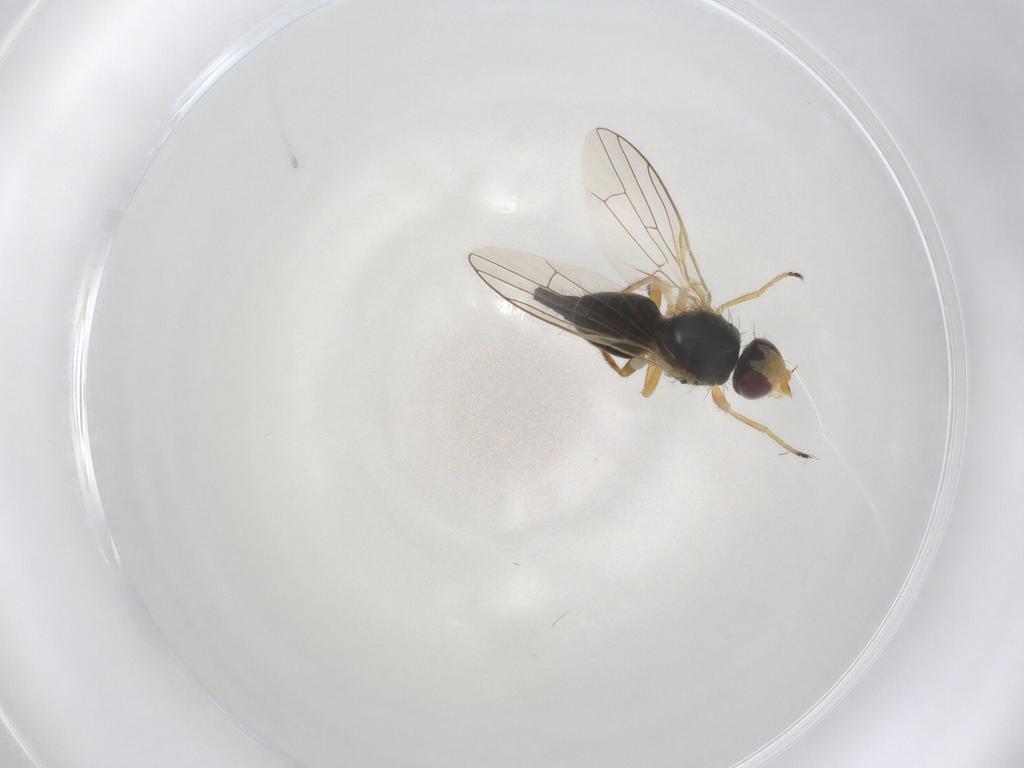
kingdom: Animalia
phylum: Arthropoda
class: Insecta
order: Diptera
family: Tephritidae
